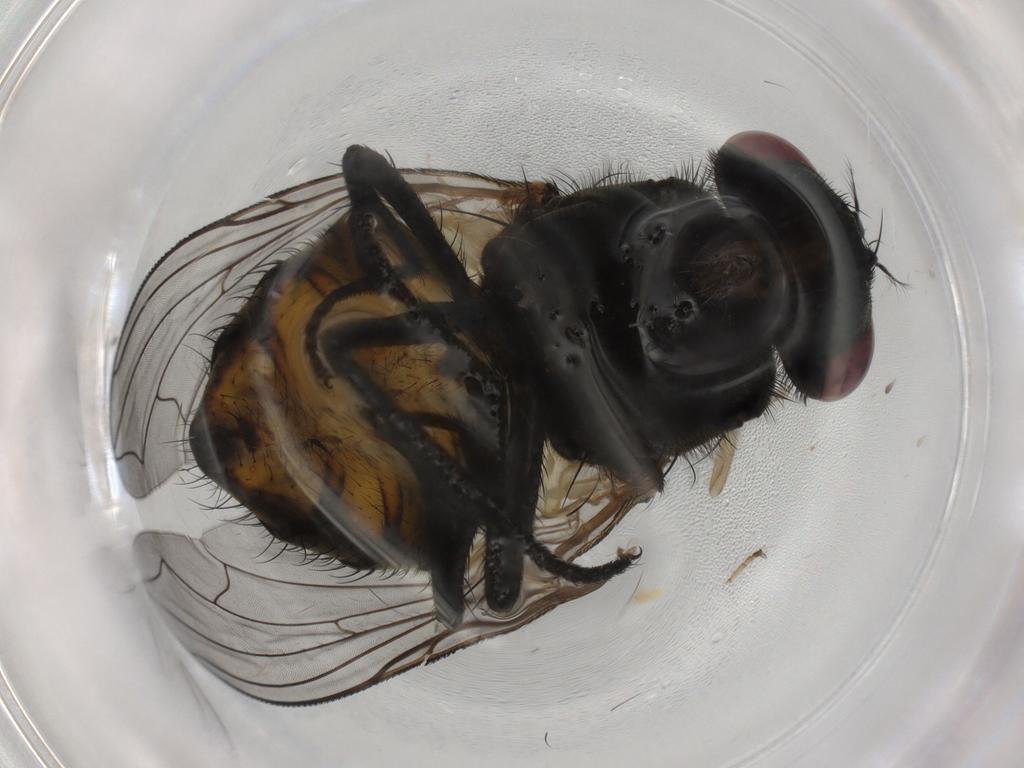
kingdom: Animalia
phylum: Arthropoda
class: Insecta
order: Diptera
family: Muscidae
